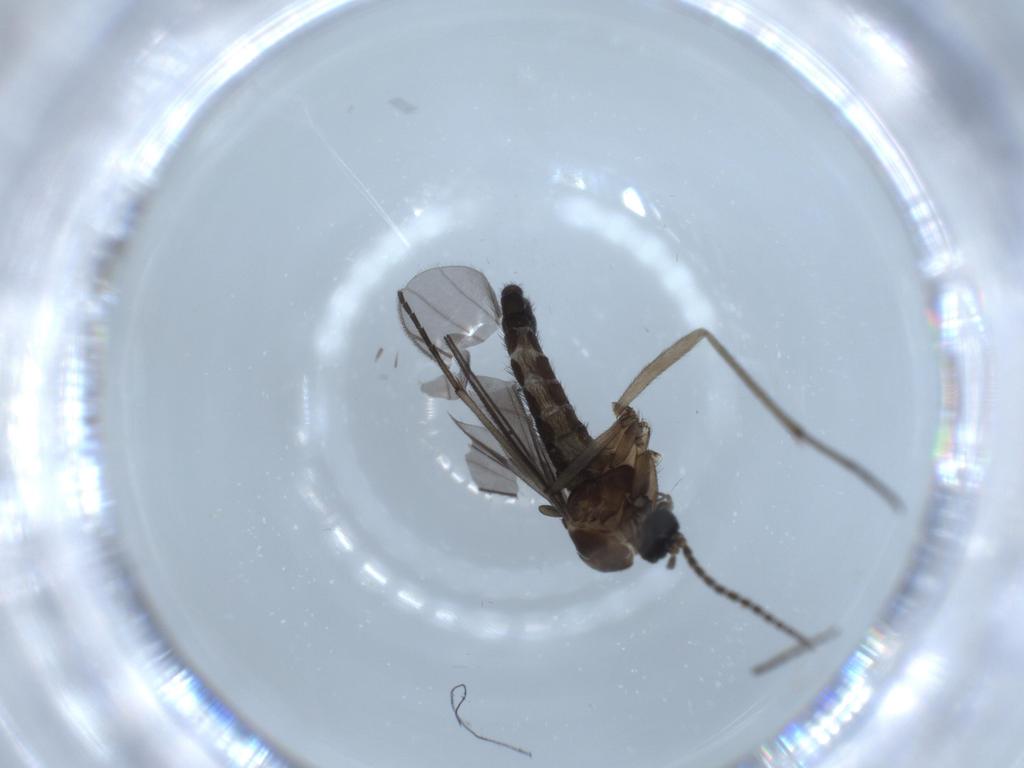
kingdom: Animalia
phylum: Arthropoda
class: Insecta
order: Diptera
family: Sciaridae
